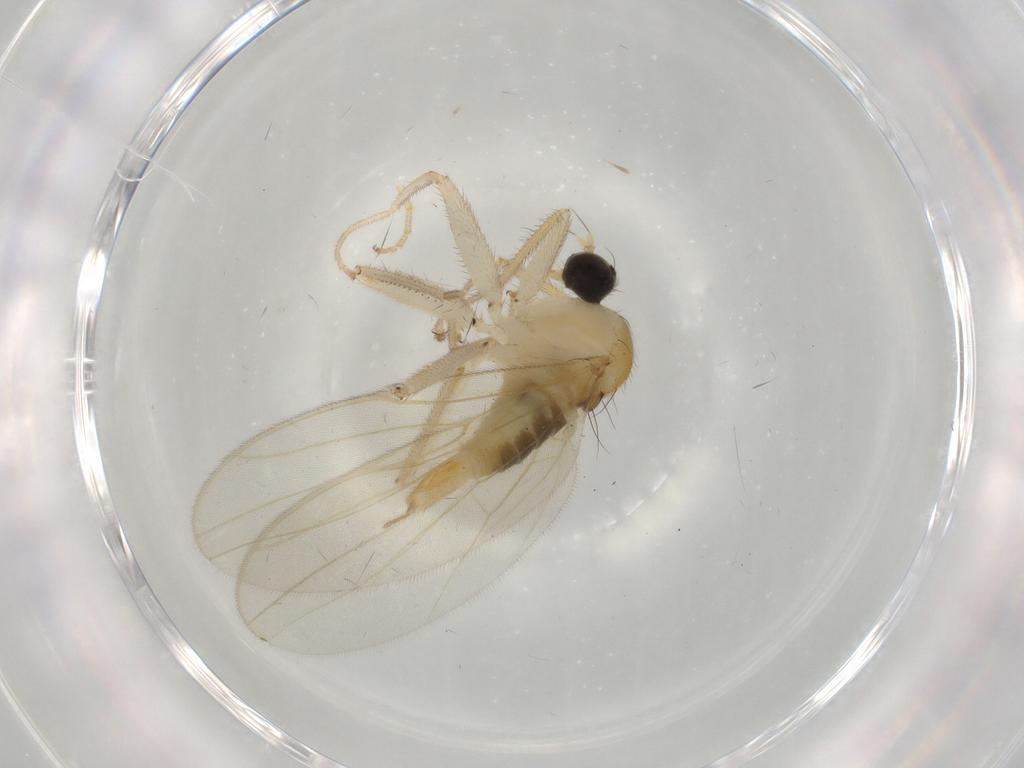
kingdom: Animalia
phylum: Arthropoda
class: Insecta
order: Diptera
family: Hybotidae
